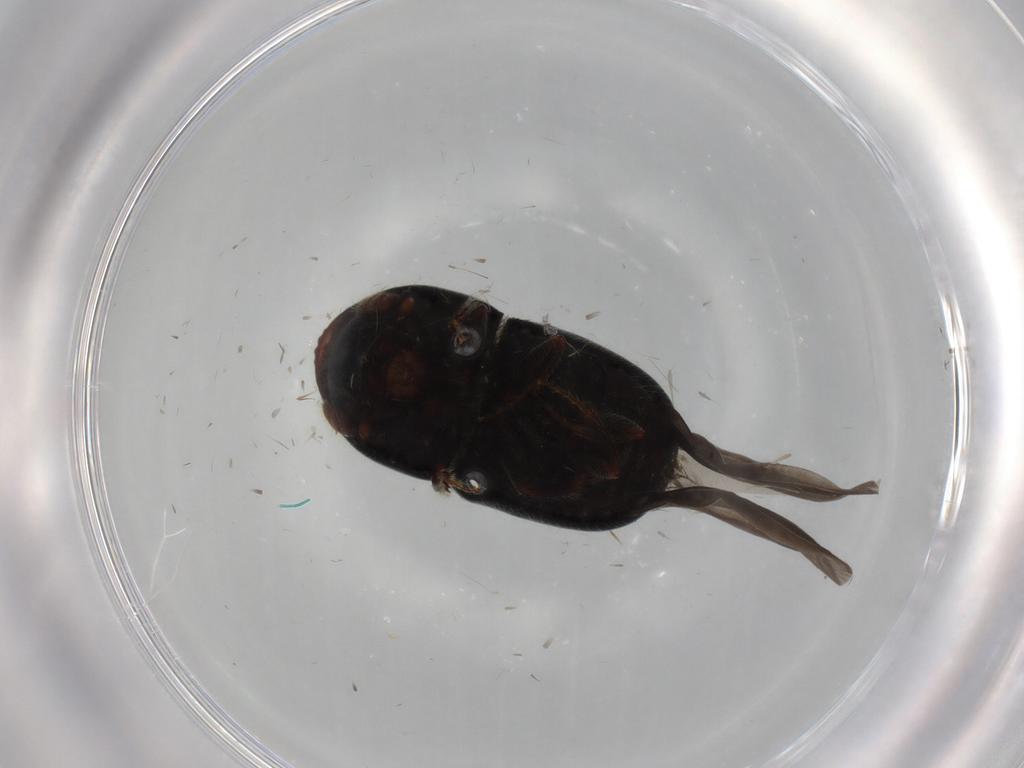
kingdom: Animalia
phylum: Arthropoda
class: Insecta
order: Coleoptera
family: Curculionidae
